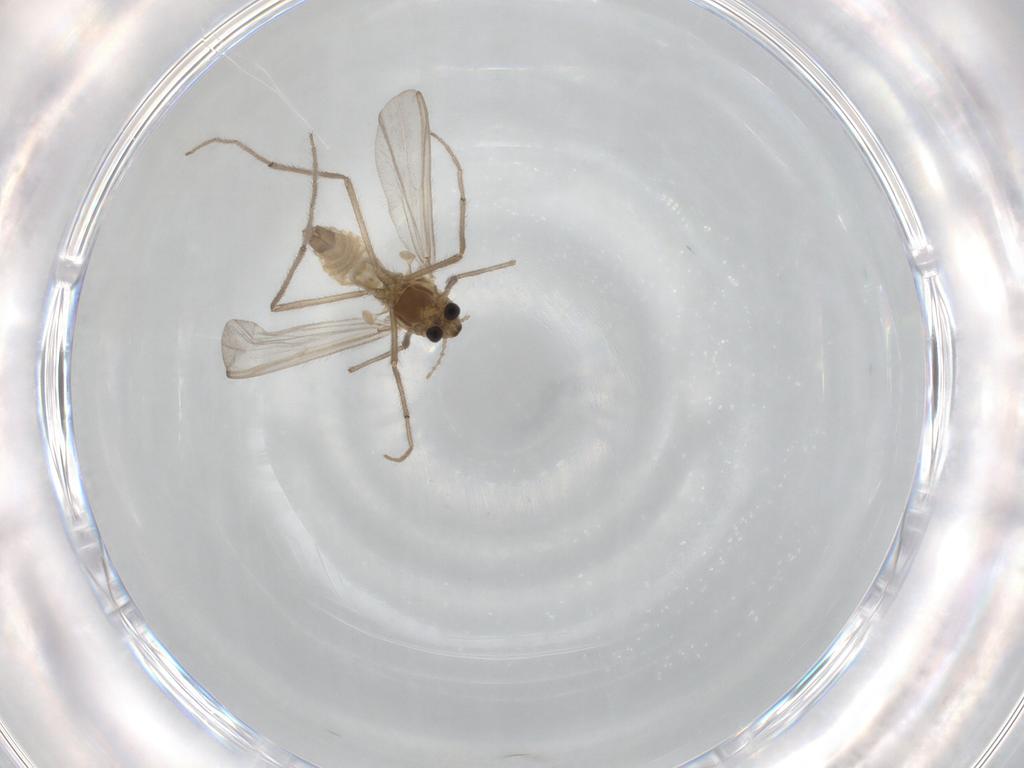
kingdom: Animalia
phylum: Arthropoda
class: Insecta
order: Diptera
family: Chironomidae
